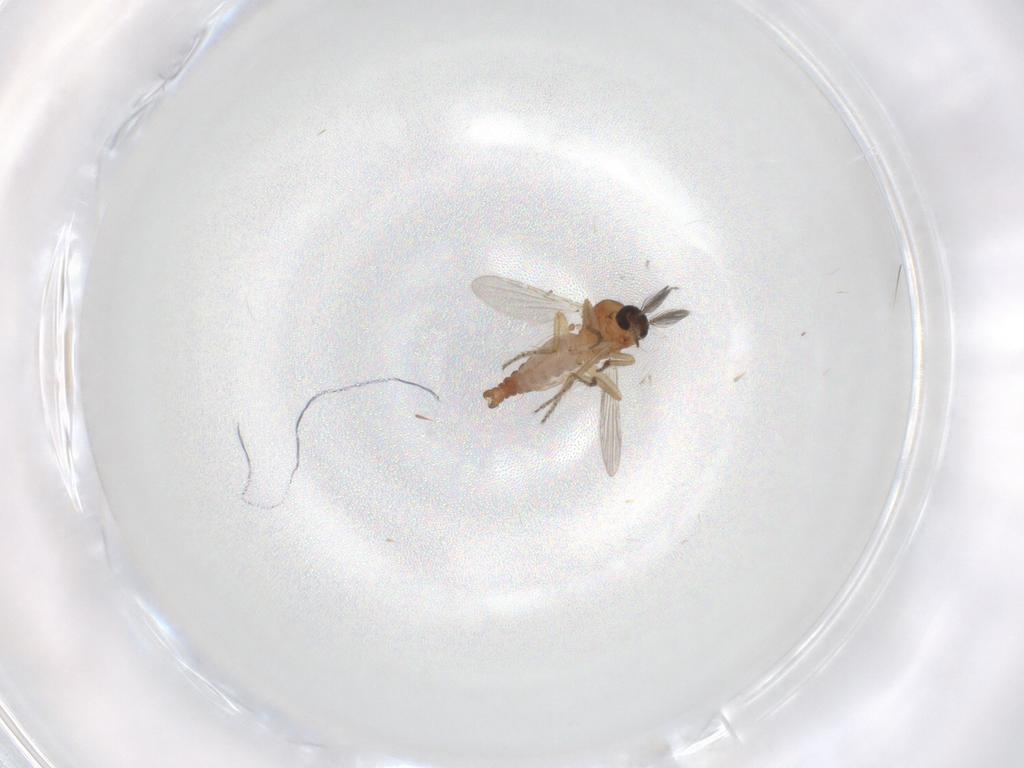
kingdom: Animalia
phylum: Arthropoda
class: Insecta
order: Diptera
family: Ceratopogonidae
